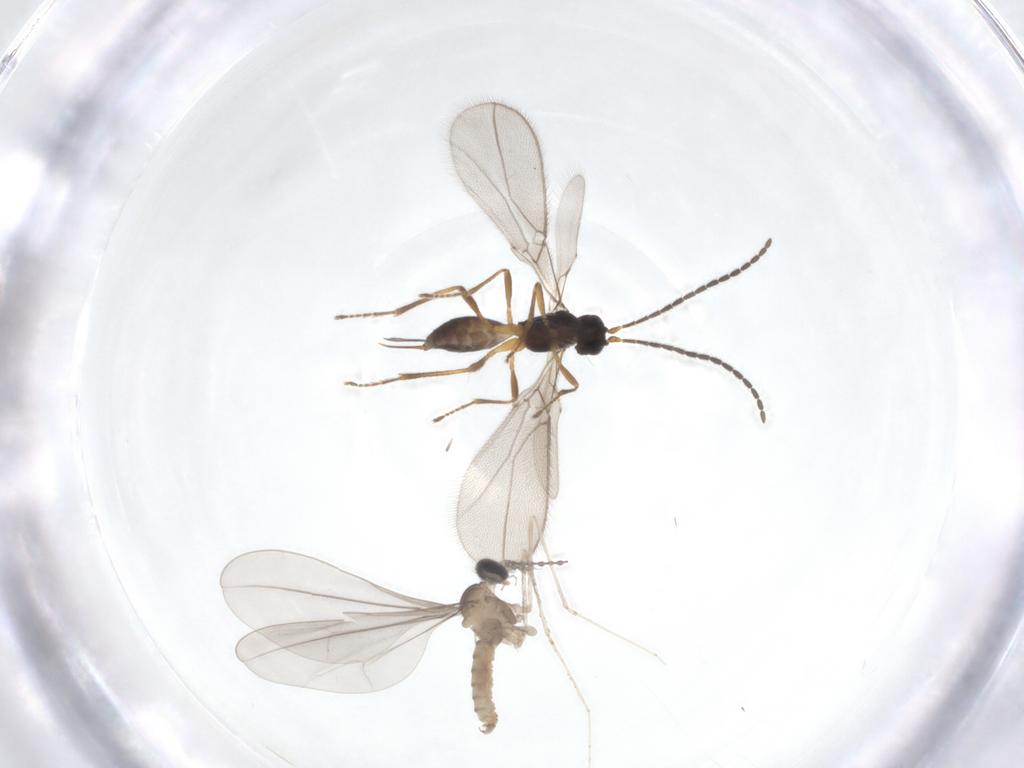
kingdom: Animalia
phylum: Arthropoda
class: Insecta
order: Diptera
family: Cecidomyiidae
